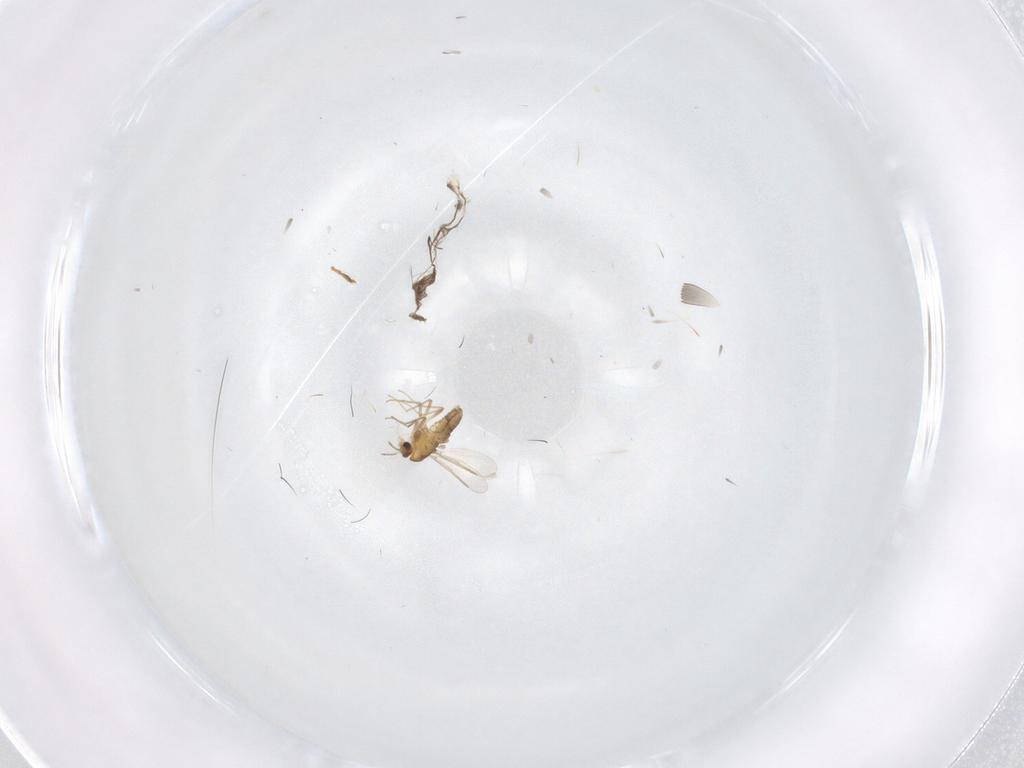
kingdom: Animalia
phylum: Arthropoda
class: Insecta
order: Diptera
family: Cecidomyiidae
